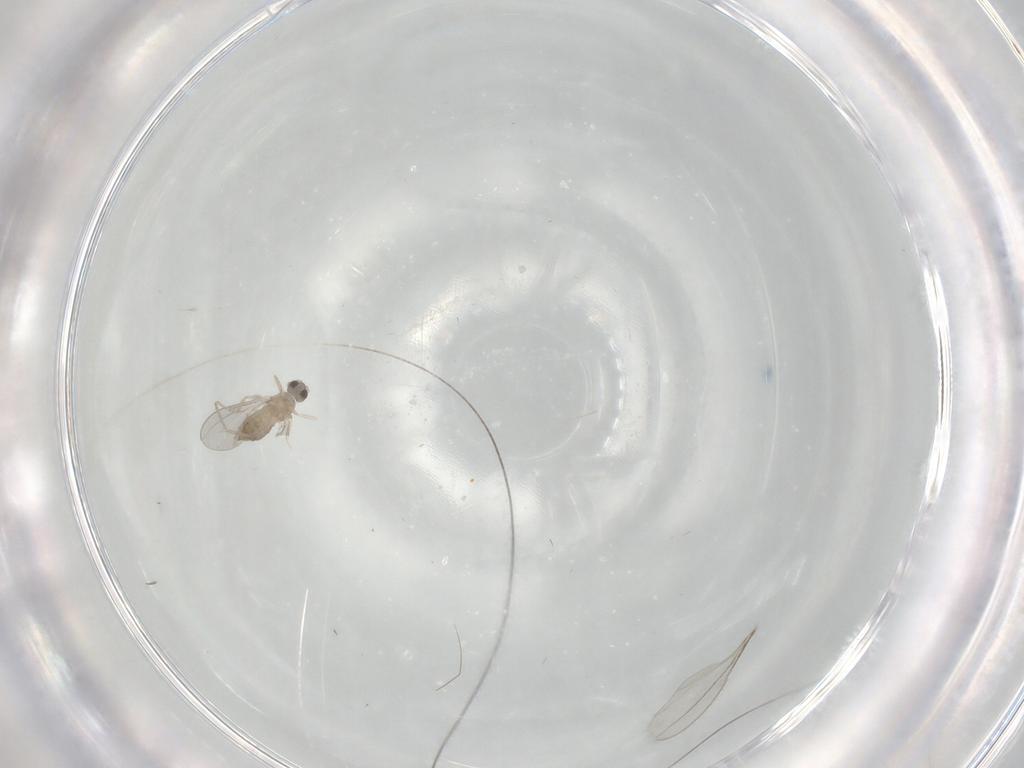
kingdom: Animalia
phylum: Arthropoda
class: Insecta
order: Diptera
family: Cecidomyiidae
